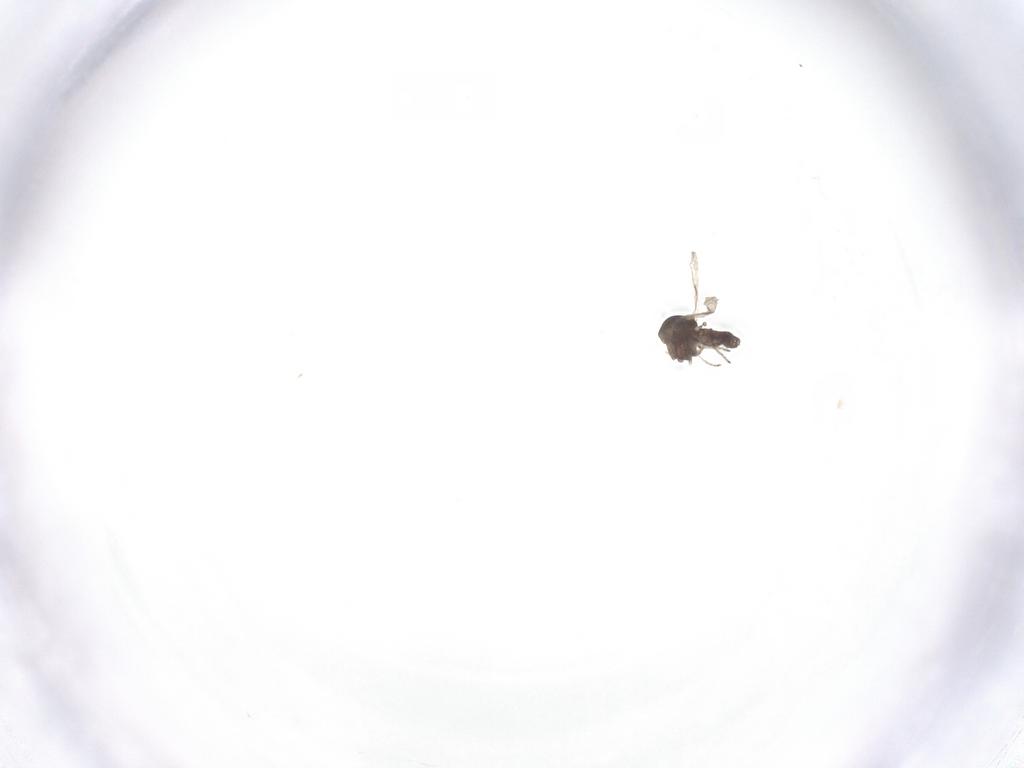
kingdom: Animalia
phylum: Arthropoda
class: Insecta
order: Diptera
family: Ceratopogonidae
